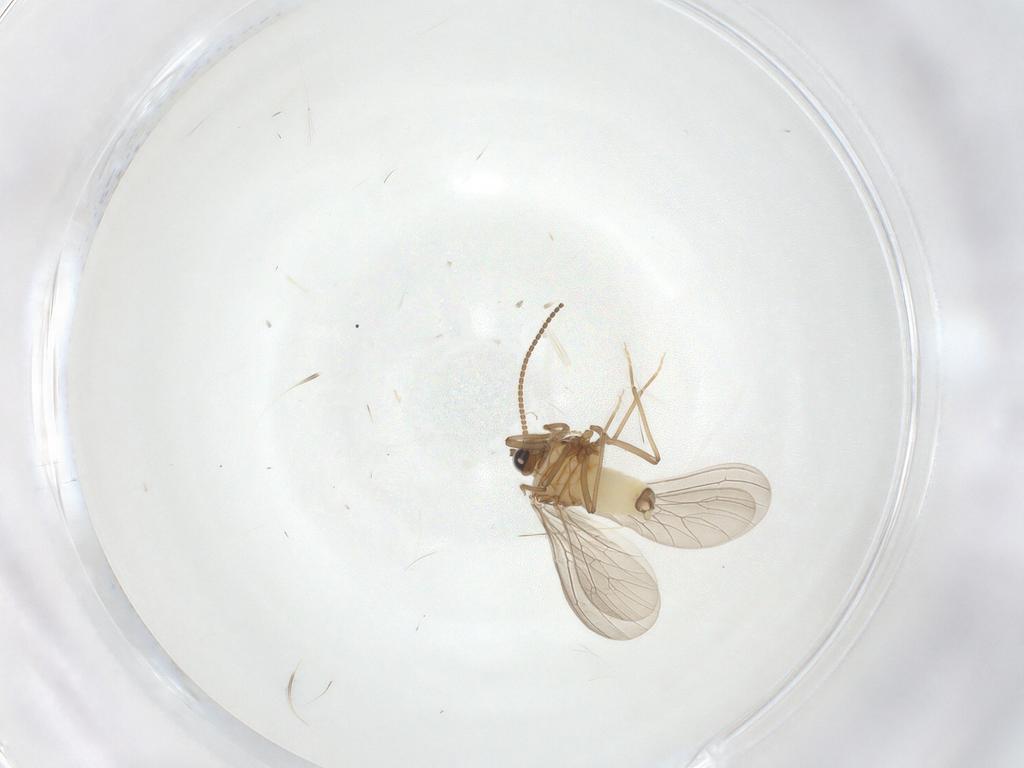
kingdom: Animalia
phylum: Arthropoda
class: Insecta
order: Neuroptera
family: Coniopterygidae
